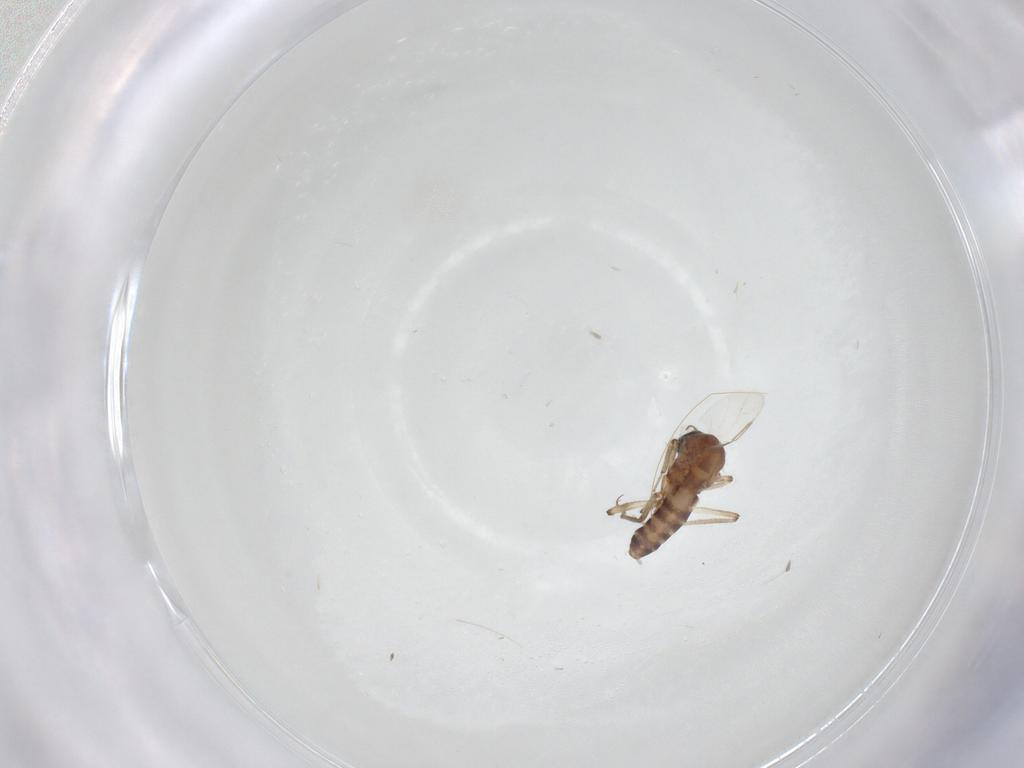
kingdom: Animalia
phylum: Arthropoda
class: Insecta
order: Diptera
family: Ceratopogonidae
